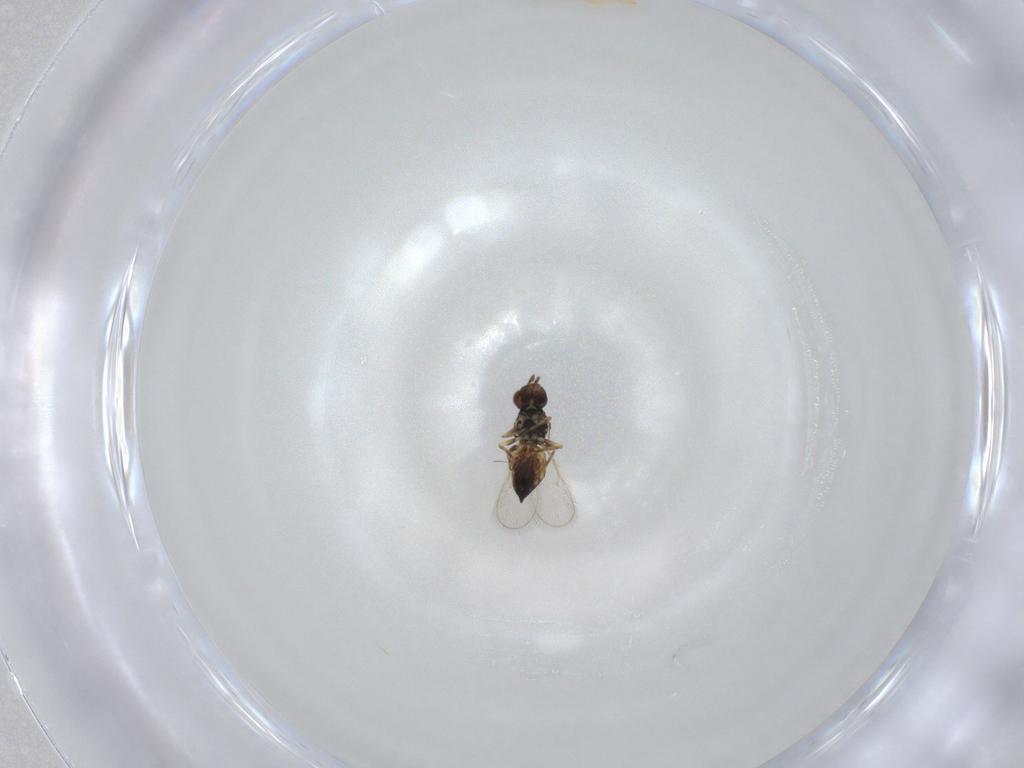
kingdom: Animalia
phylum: Arthropoda
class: Insecta
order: Hymenoptera
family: Eulophidae
